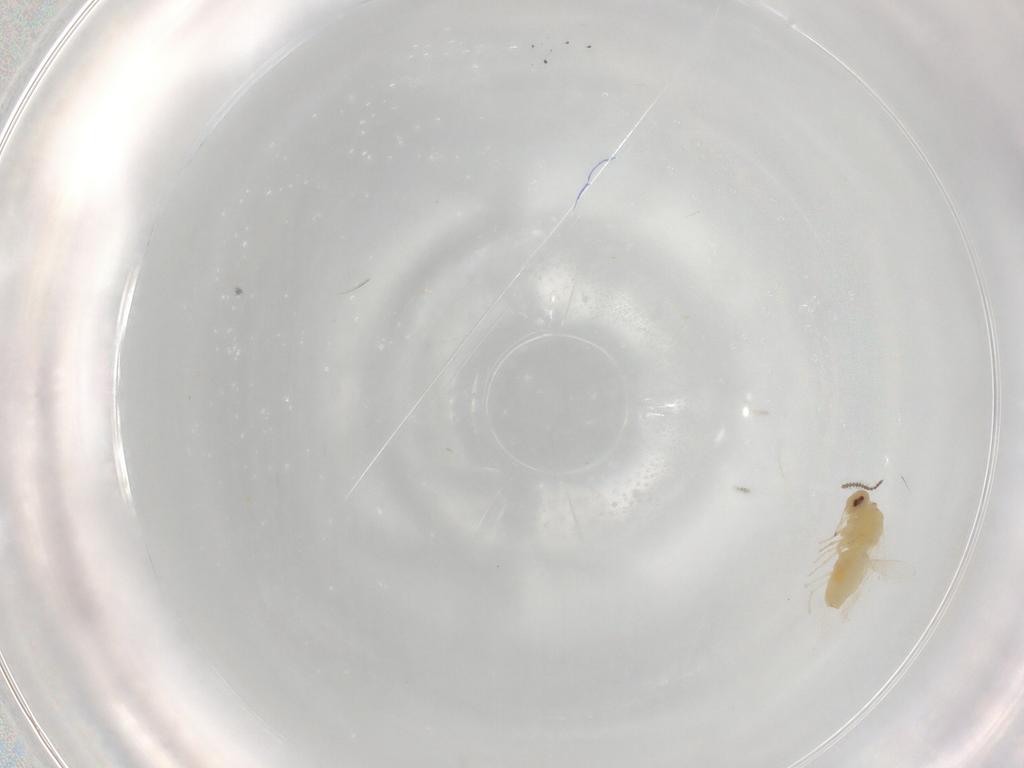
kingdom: Animalia
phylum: Arthropoda
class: Insecta
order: Hemiptera
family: Aleyrodidae
